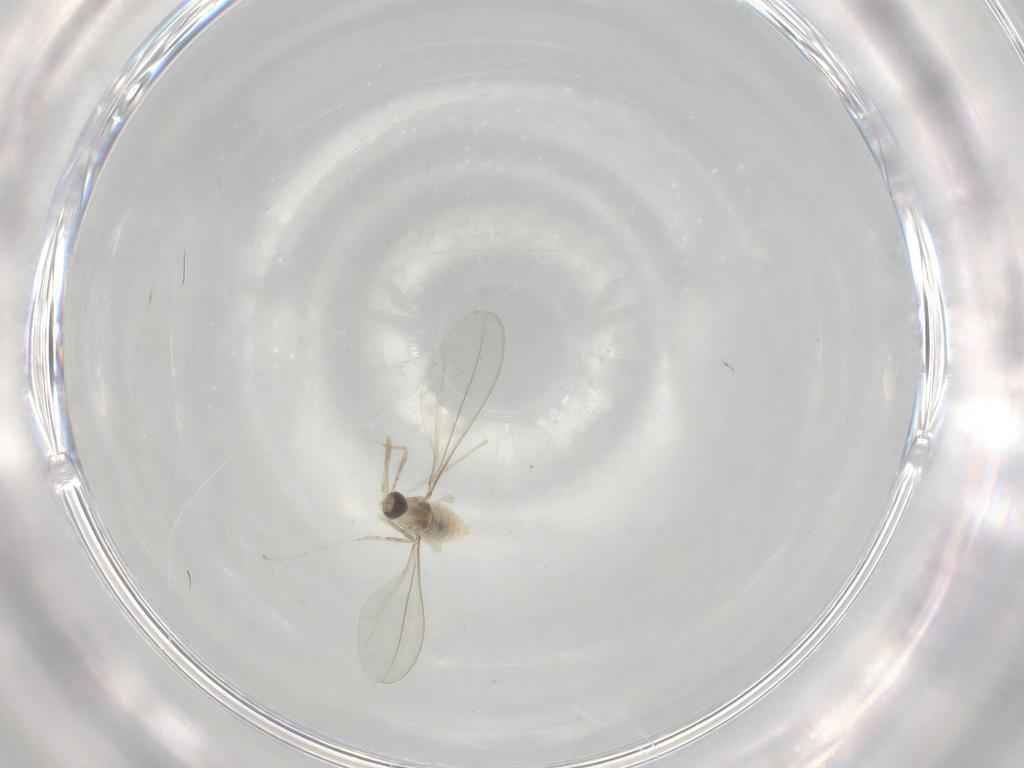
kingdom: Animalia
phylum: Arthropoda
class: Insecta
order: Diptera
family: Cecidomyiidae
